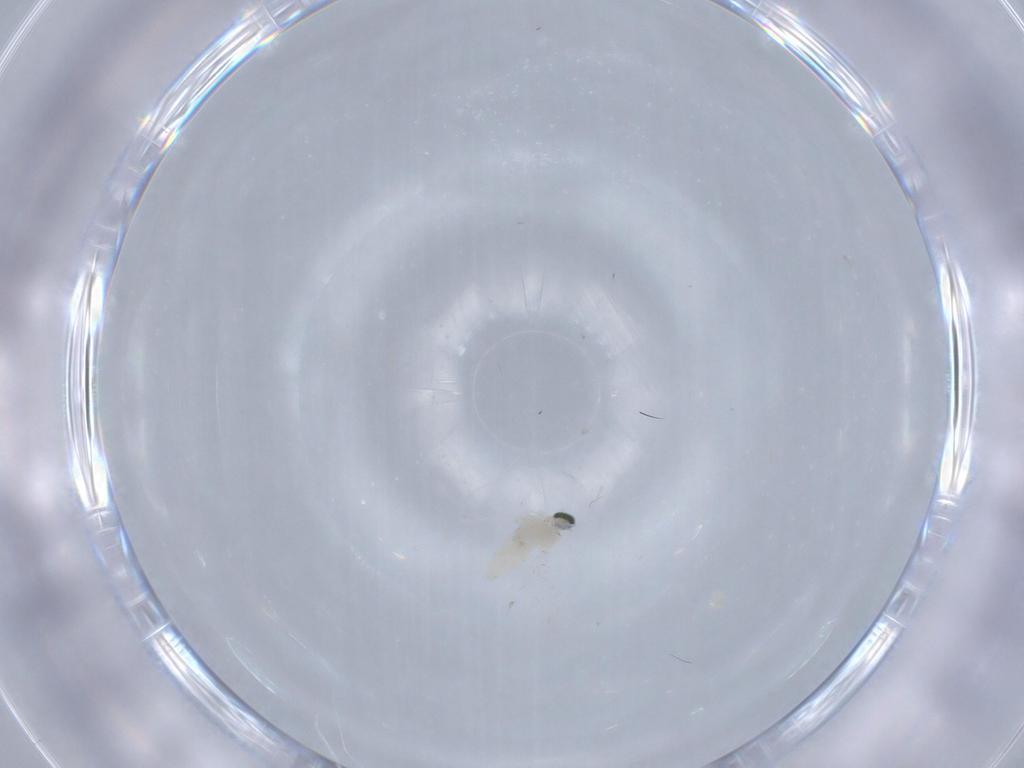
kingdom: Animalia
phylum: Arthropoda
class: Insecta
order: Diptera
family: Cecidomyiidae
